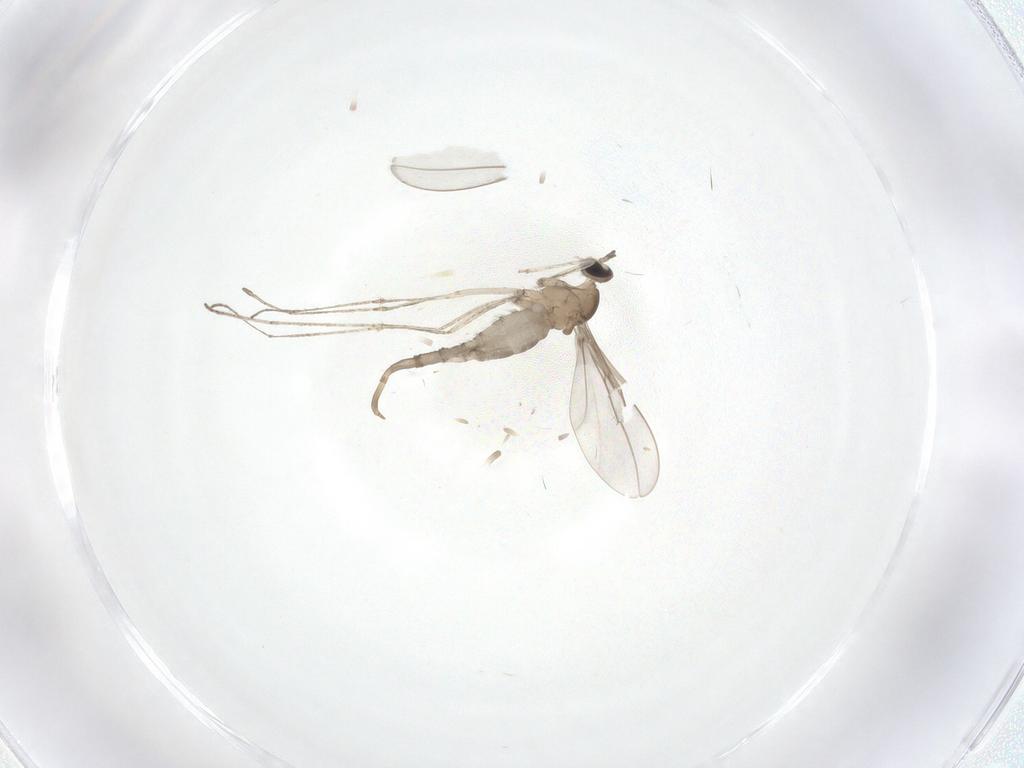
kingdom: Animalia
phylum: Arthropoda
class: Insecta
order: Diptera
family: Cecidomyiidae
